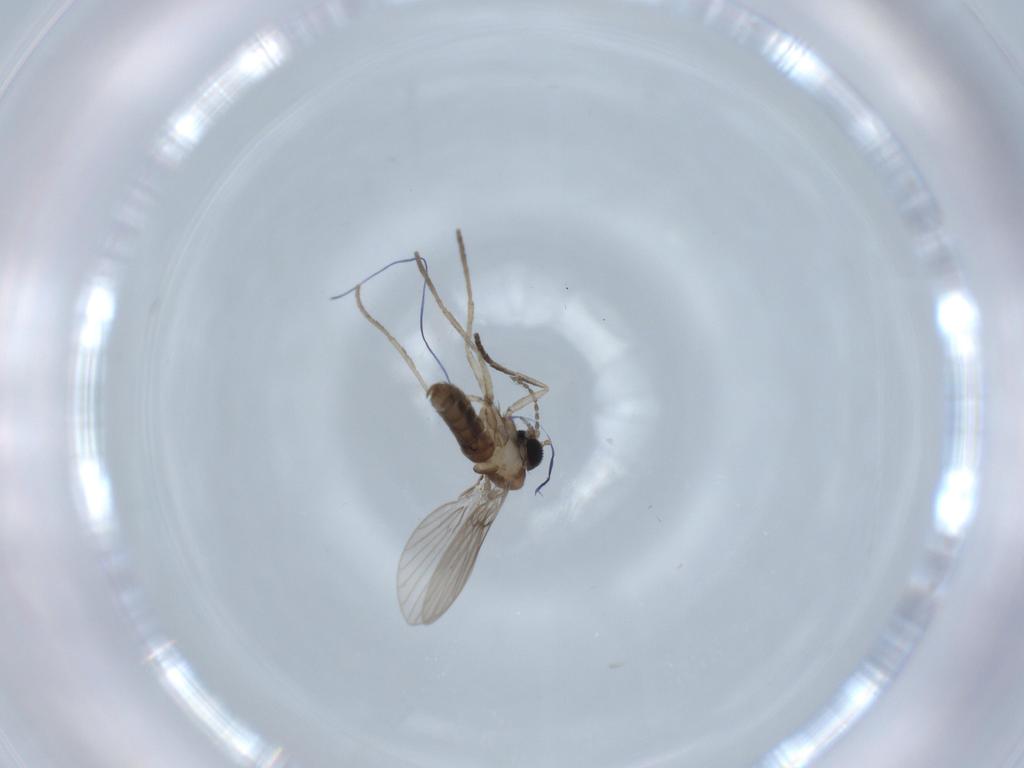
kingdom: Animalia
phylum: Arthropoda
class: Insecta
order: Diptera
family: Psychodidae
